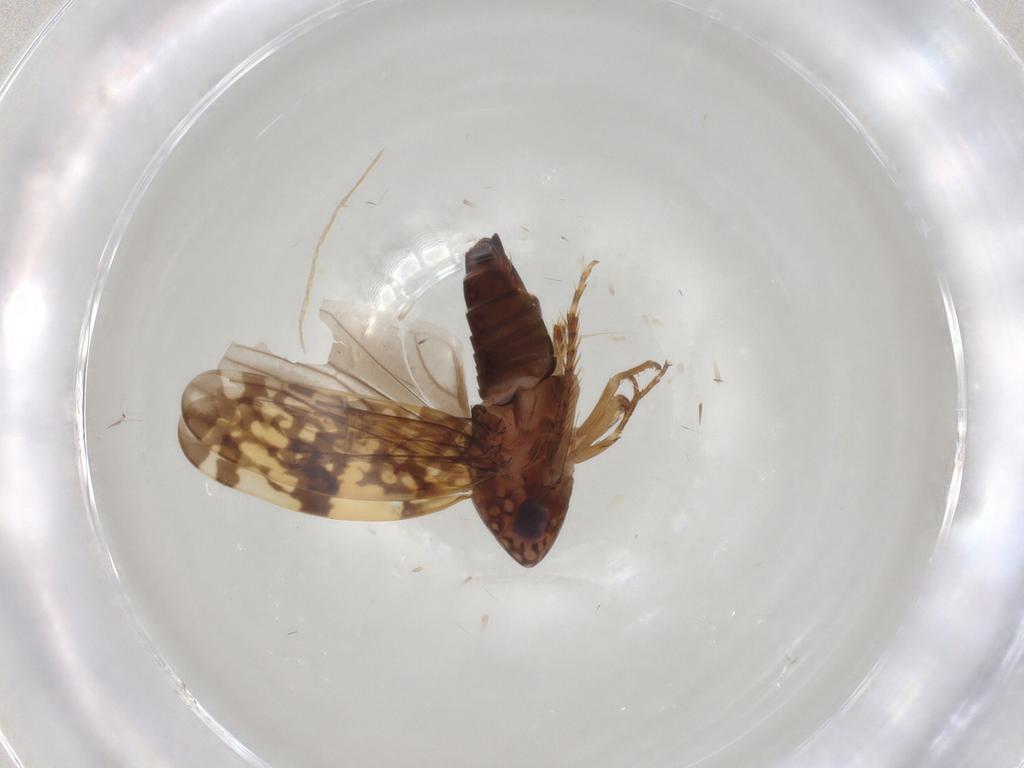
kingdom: Animalia
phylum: Arthropoda
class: Insecta
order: Hemiptera
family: Cicadellidae
